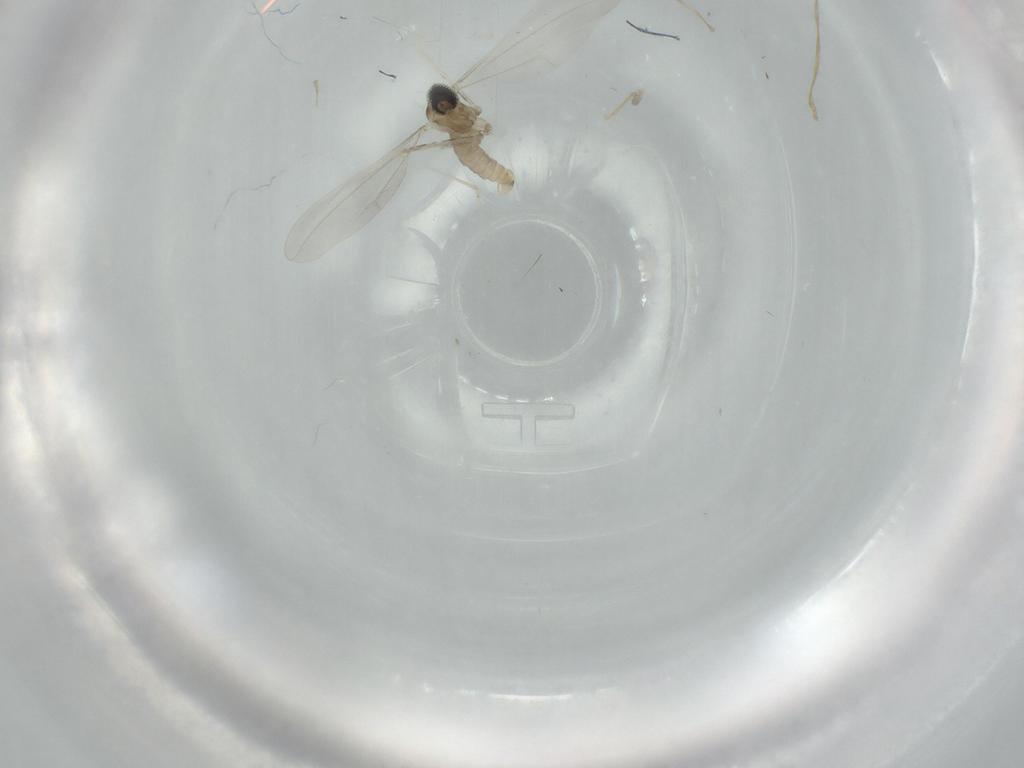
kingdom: Animalia
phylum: Arthropoda
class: Insecta
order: Diptera
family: Cecidomyiidae
